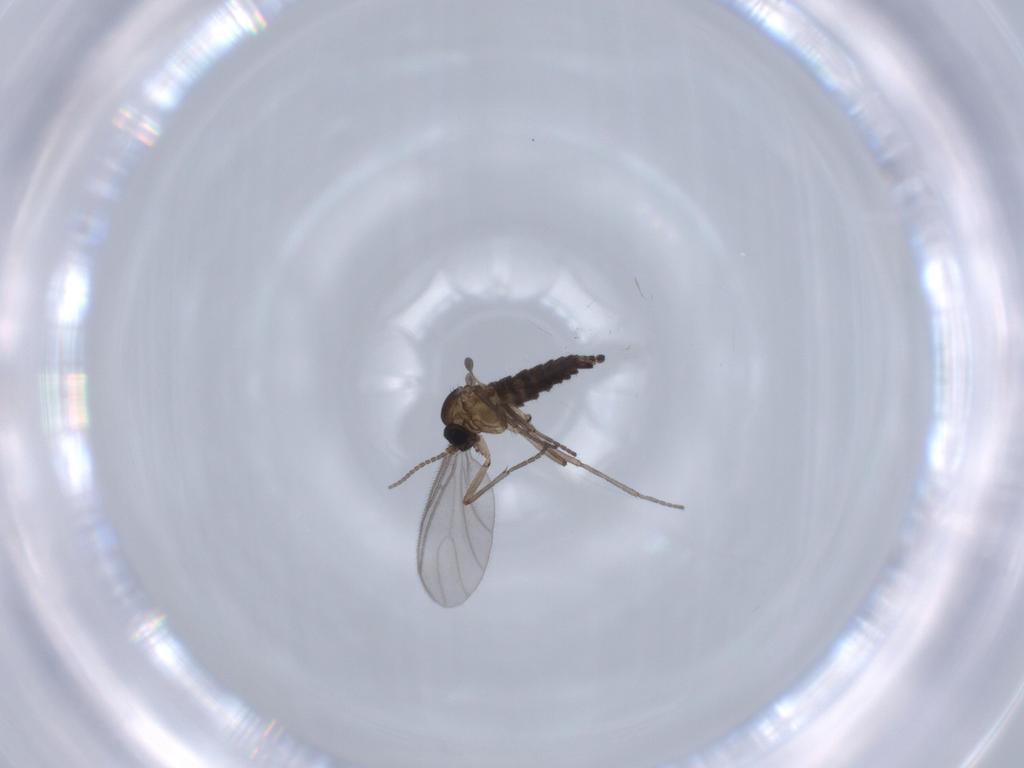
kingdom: Animalia
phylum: Arthropoda
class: Insecta
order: Diptera
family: Sciaridae
